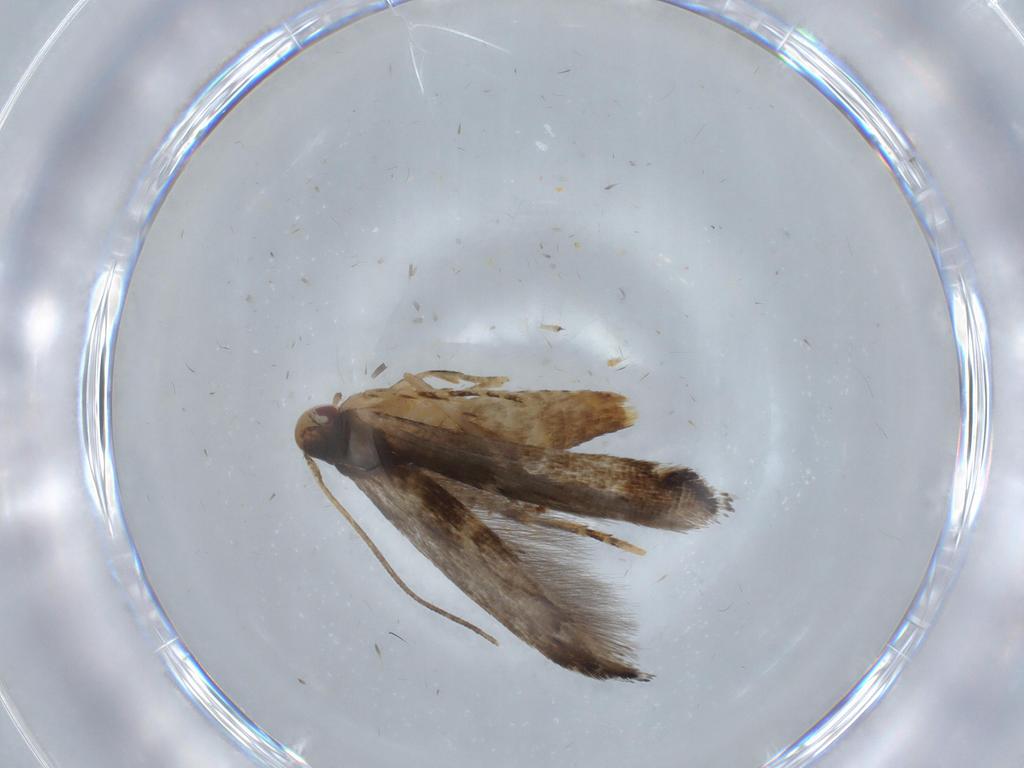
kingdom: Animalia
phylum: Arthropoda
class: Insecta
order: Lepidoptera
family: Momphidae
